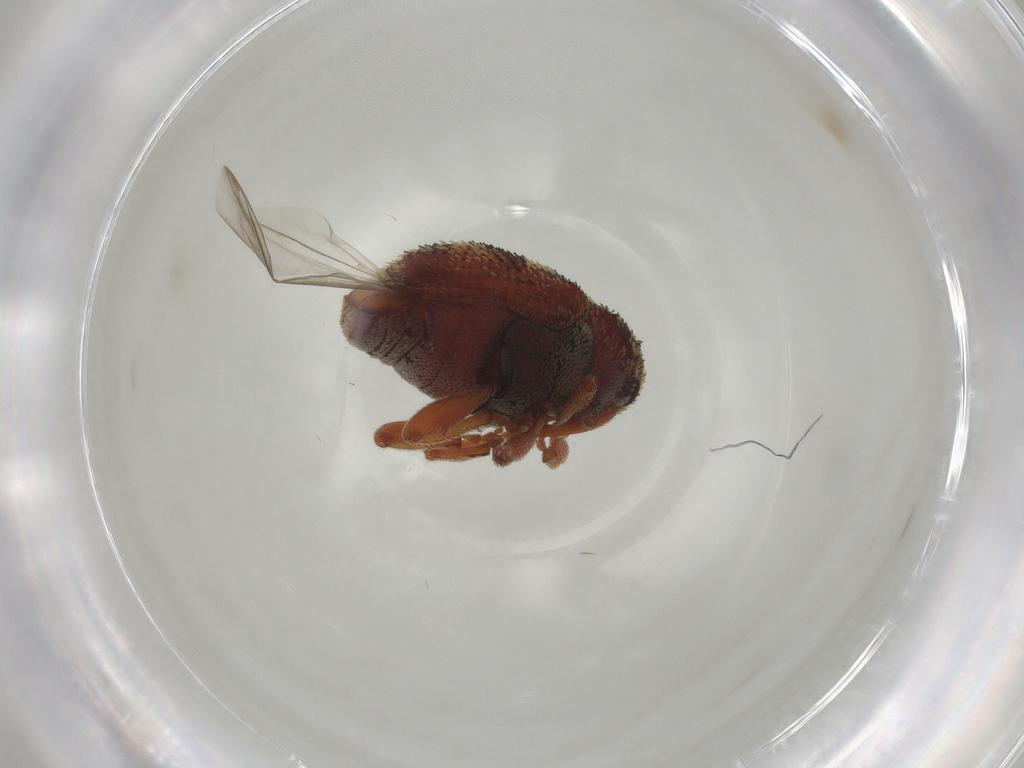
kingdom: Animalia
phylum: Arthropoda
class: Insecta
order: Coleoptera
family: Curculionidae
